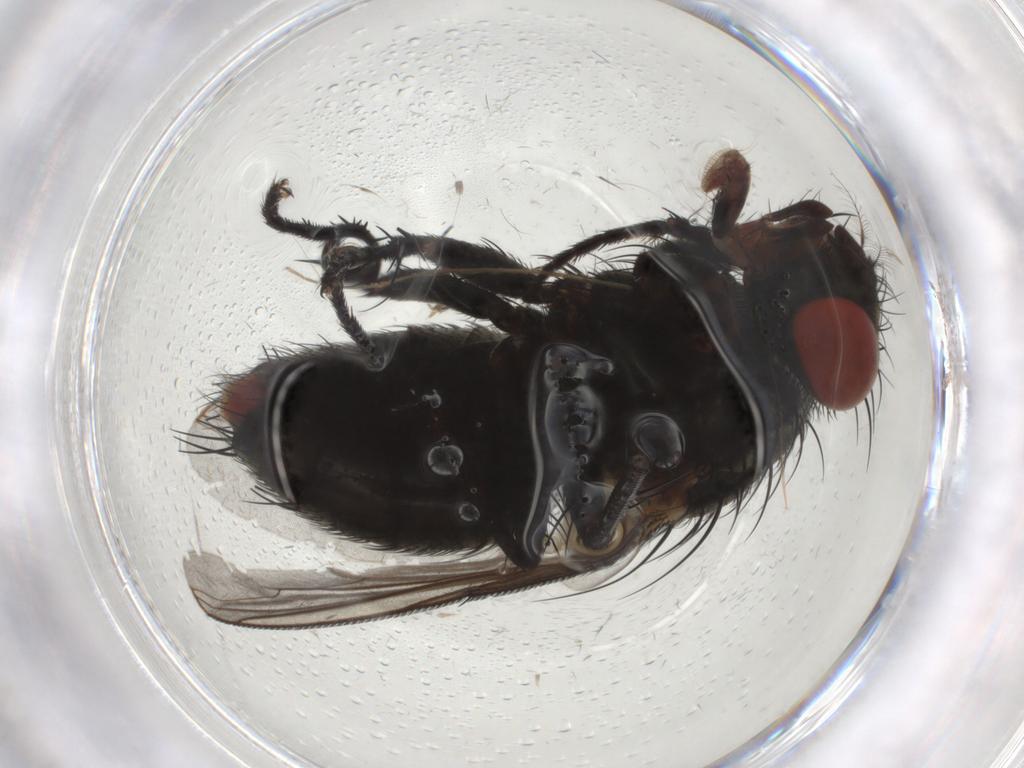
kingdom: Animalia
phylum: Arthropoda
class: Insecta
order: Diptera
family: Sarcophagidae
